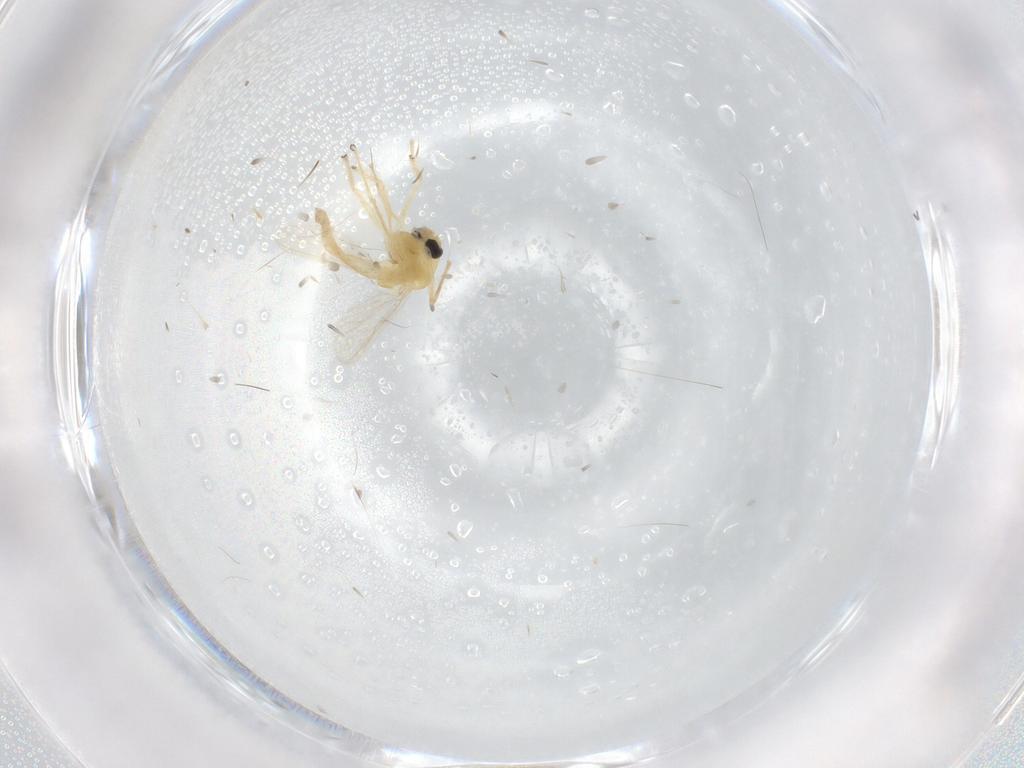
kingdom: Animalia
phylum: Arthropoda
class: Insecta
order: Diptera
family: Chironomidae
